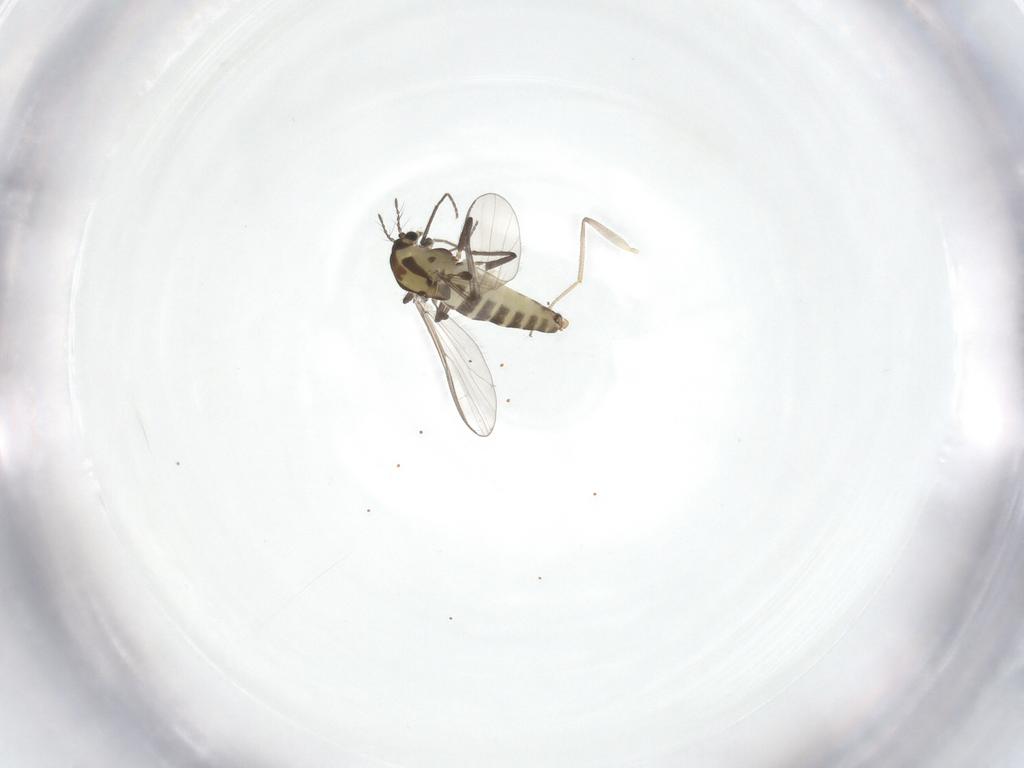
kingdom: Animalia
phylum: Arthropoda
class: Insecta
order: Diptera
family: Chironomidae
